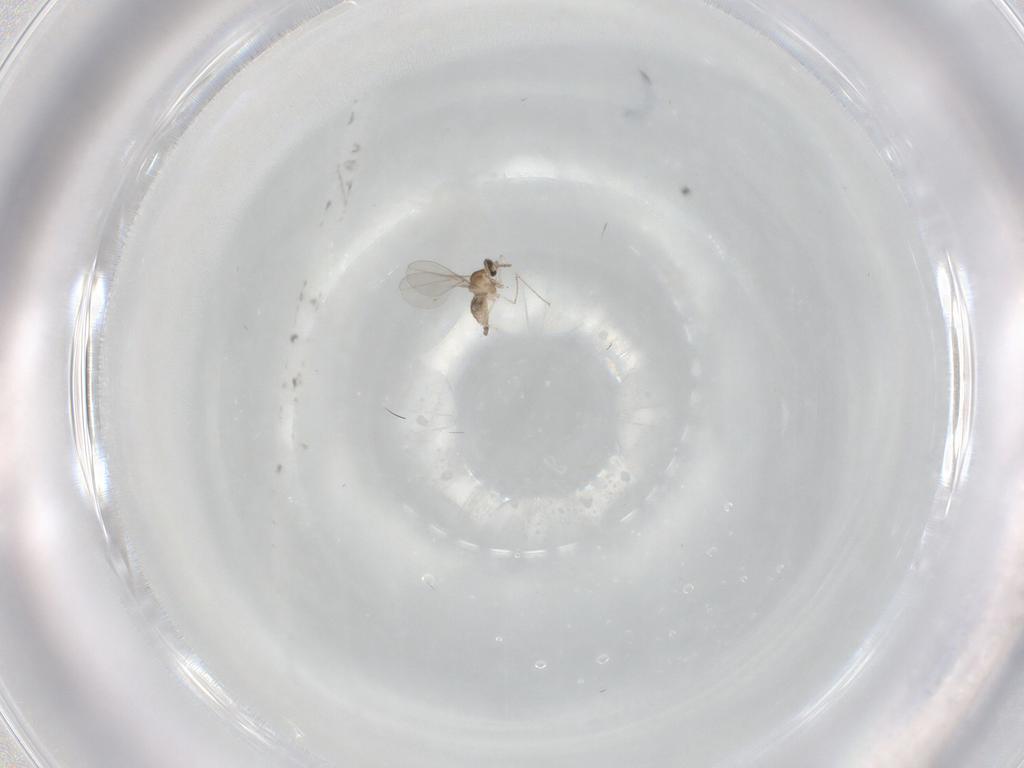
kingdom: Animalia
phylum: Arthropoda
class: Insecta
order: Diptera
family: Cecidomyiidae
